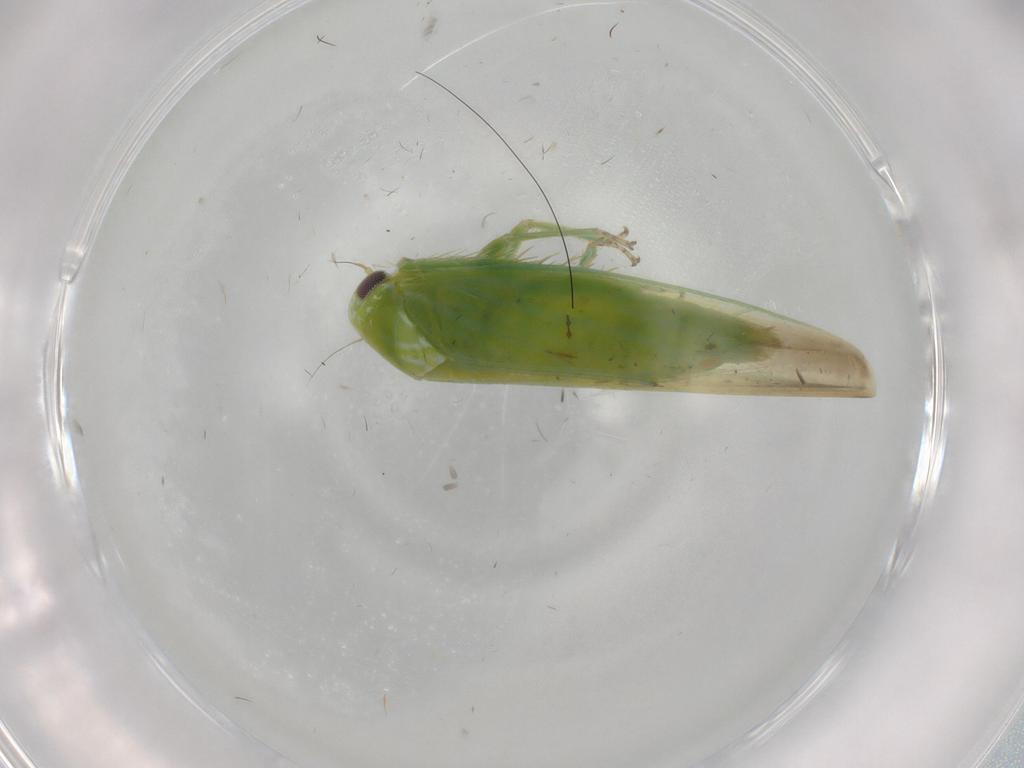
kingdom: Animalia
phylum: Arthropoda
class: Insecta
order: Hemiptera
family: Cicadellidae
